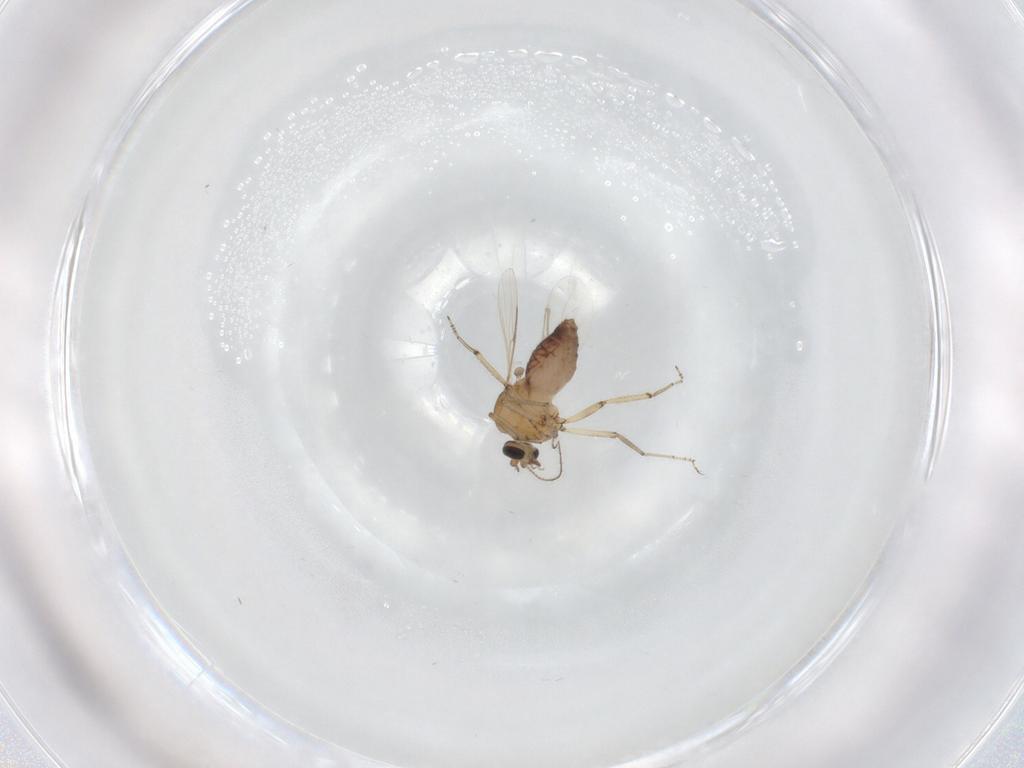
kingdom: Animalia
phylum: Arthropoda
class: Insecta
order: Diptera
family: Ceratopogonidae
